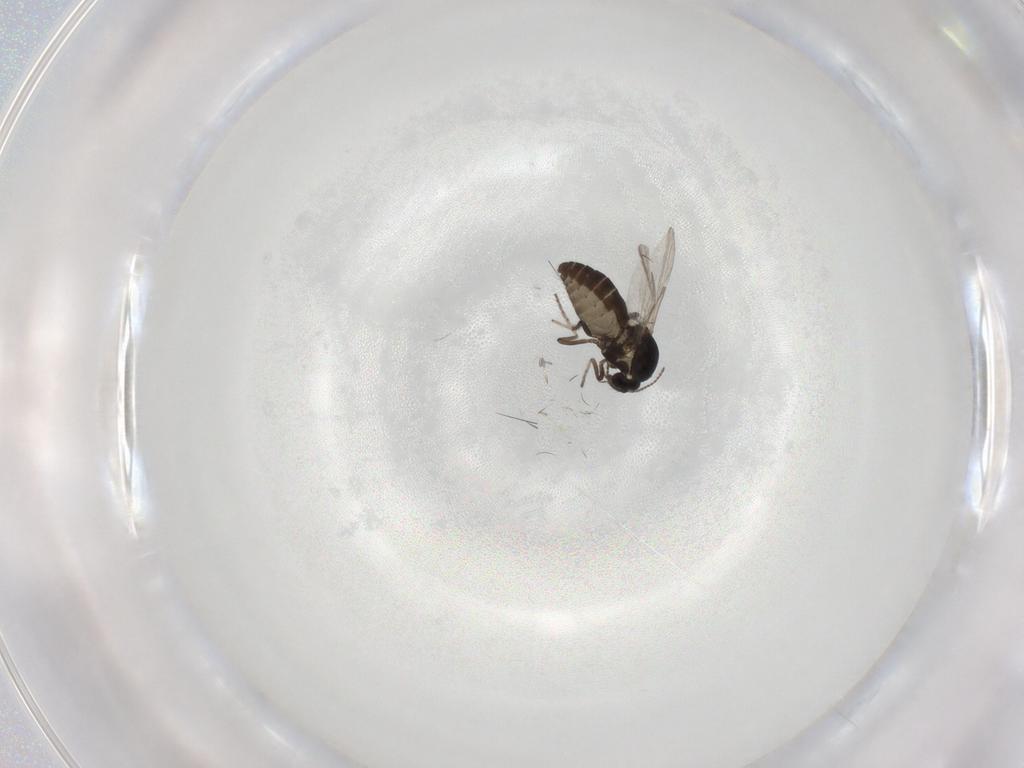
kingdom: Animalia
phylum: Arthropoda
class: Insecta
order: Diptera
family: Ceratopogonidae
